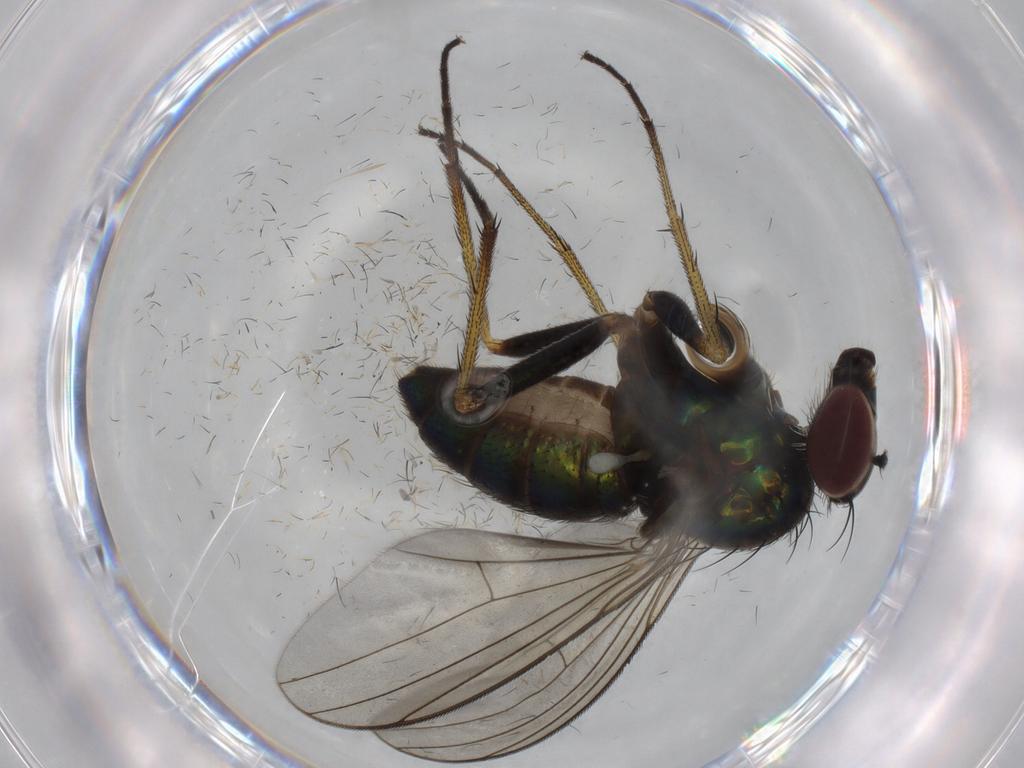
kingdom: Animalia
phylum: Arthropoda
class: Insecta
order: Diptera
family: Dolichopodidae
